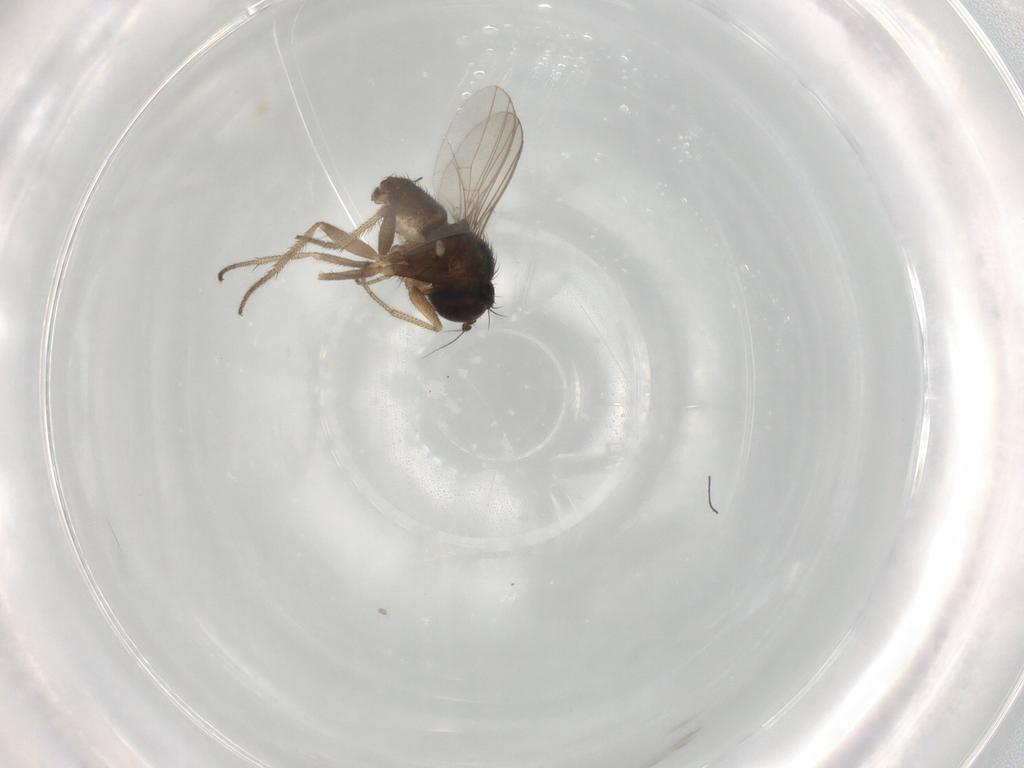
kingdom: Animalia
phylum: Arthropoda
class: Insecta
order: Diptera
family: Dolichopodidae
